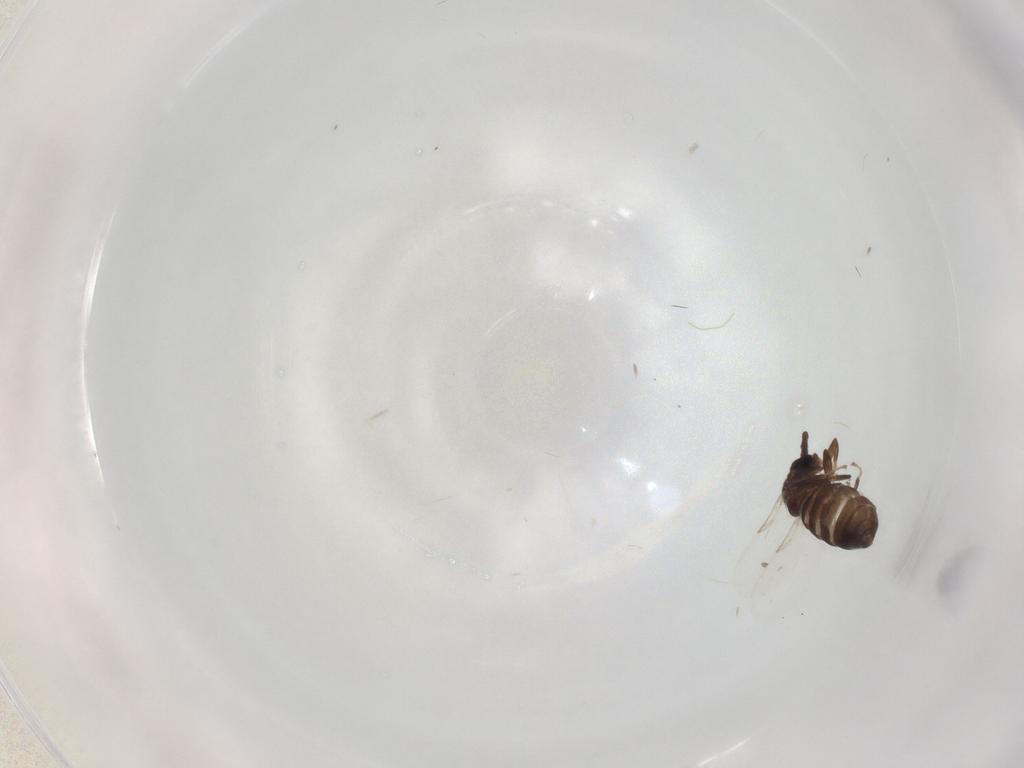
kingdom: Animalia
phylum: Arthropoda
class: Insecta
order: Diptera
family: Scatopsidae
